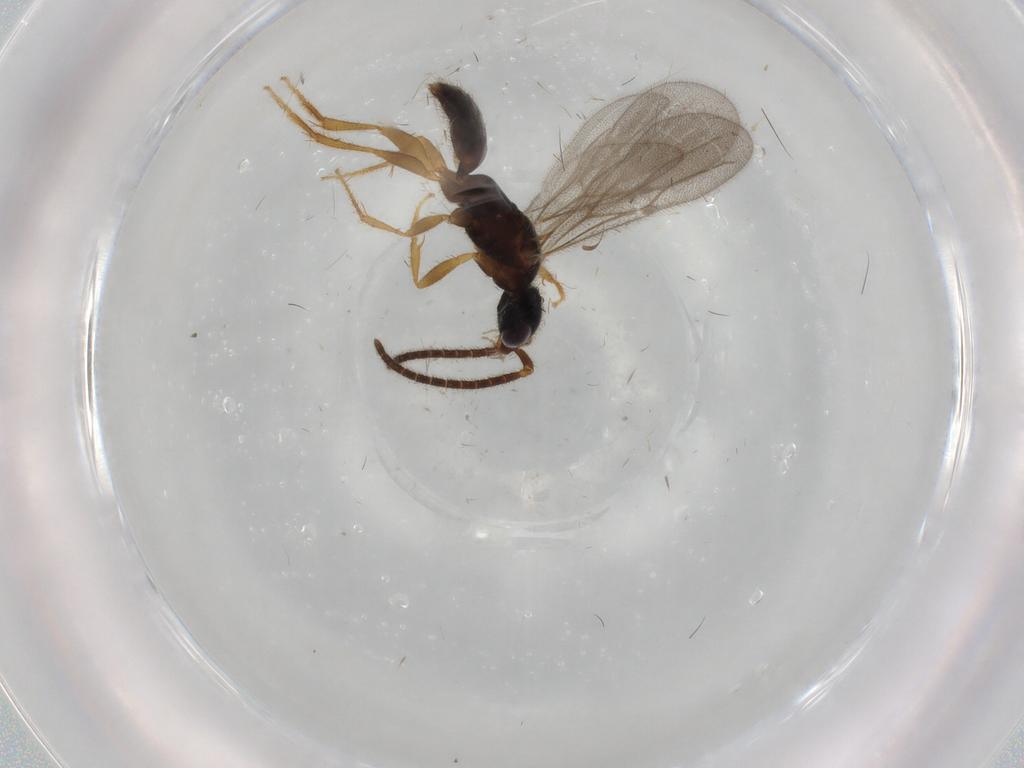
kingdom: Animalia
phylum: Arthropoda
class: Insecta
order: Hymenoptera
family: Bethylidae
